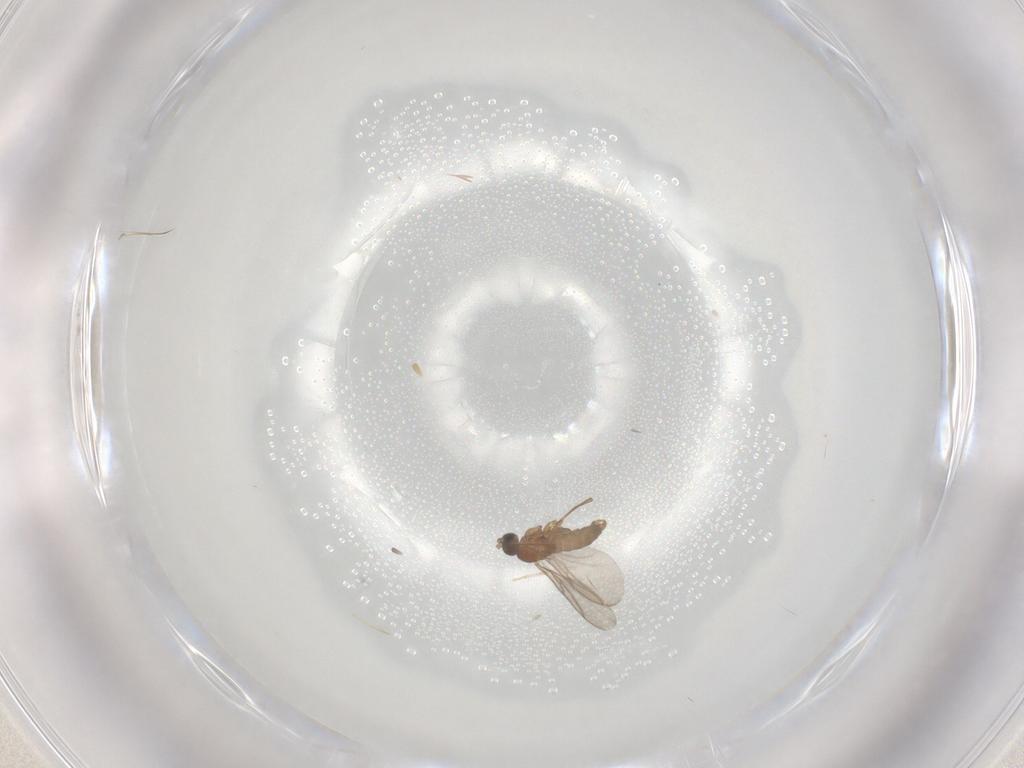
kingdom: Animalia
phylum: Arthropoda
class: Insecta
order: Diptera
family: Sciaridae
